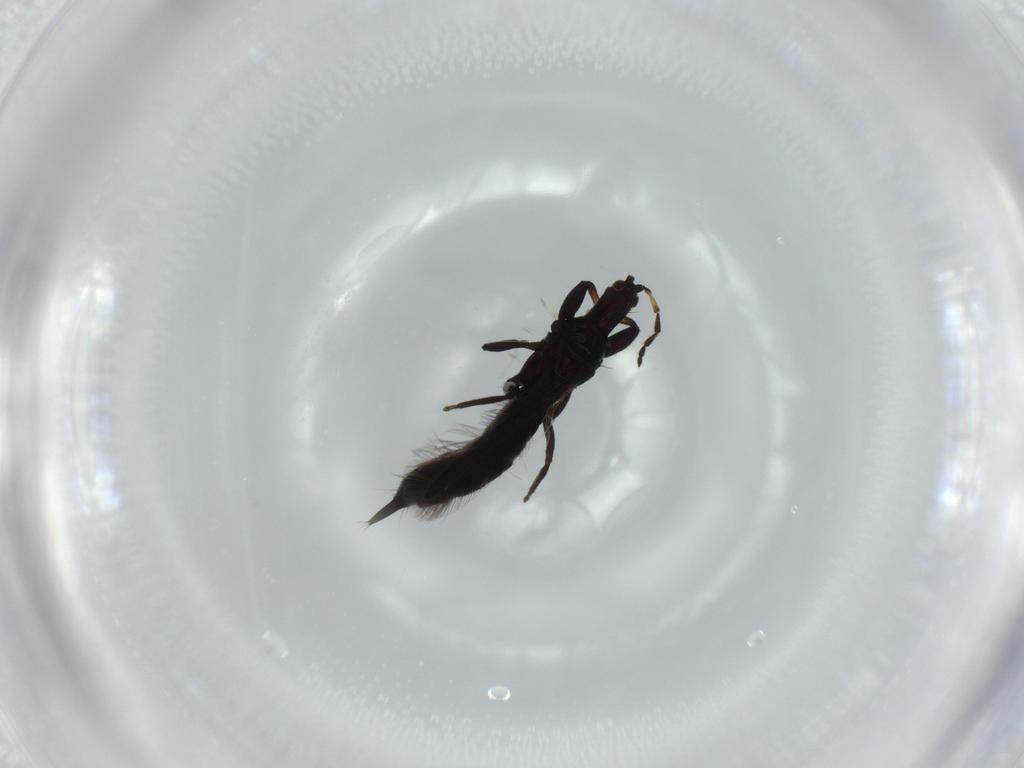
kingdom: Animalia
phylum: Arthropoda
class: Insecta
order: Thysanoptera
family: Phlaeothripidae
